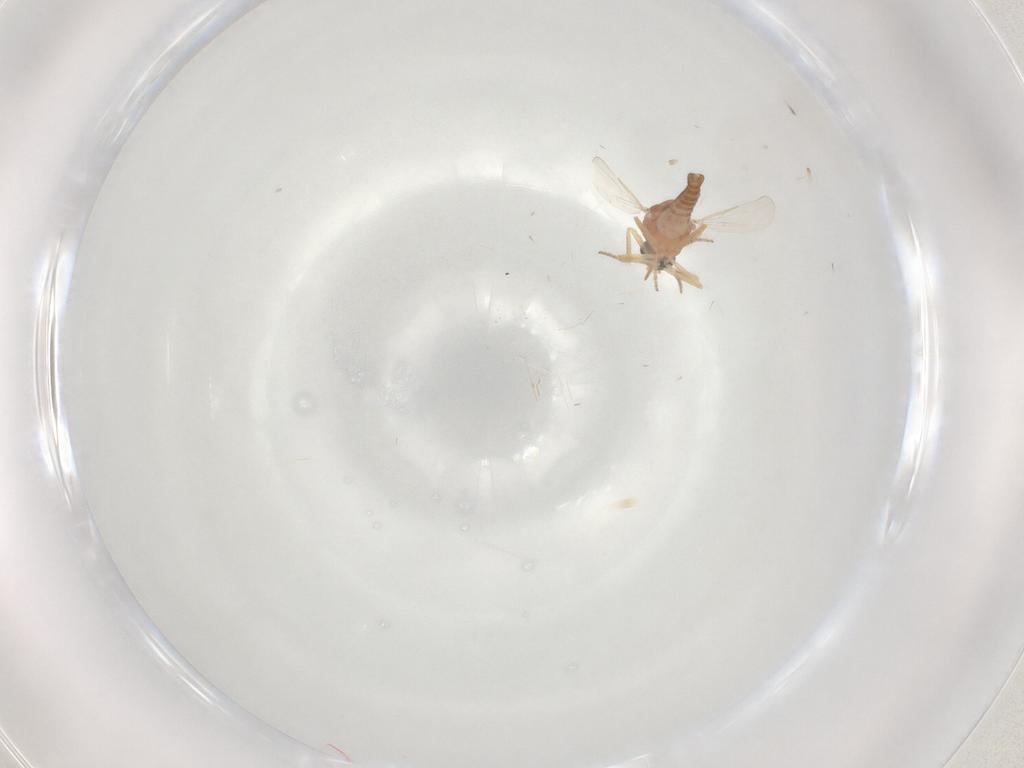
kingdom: Animalia
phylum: Arthropoda
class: Insecta
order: Diptera
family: Ceratopogonidae
